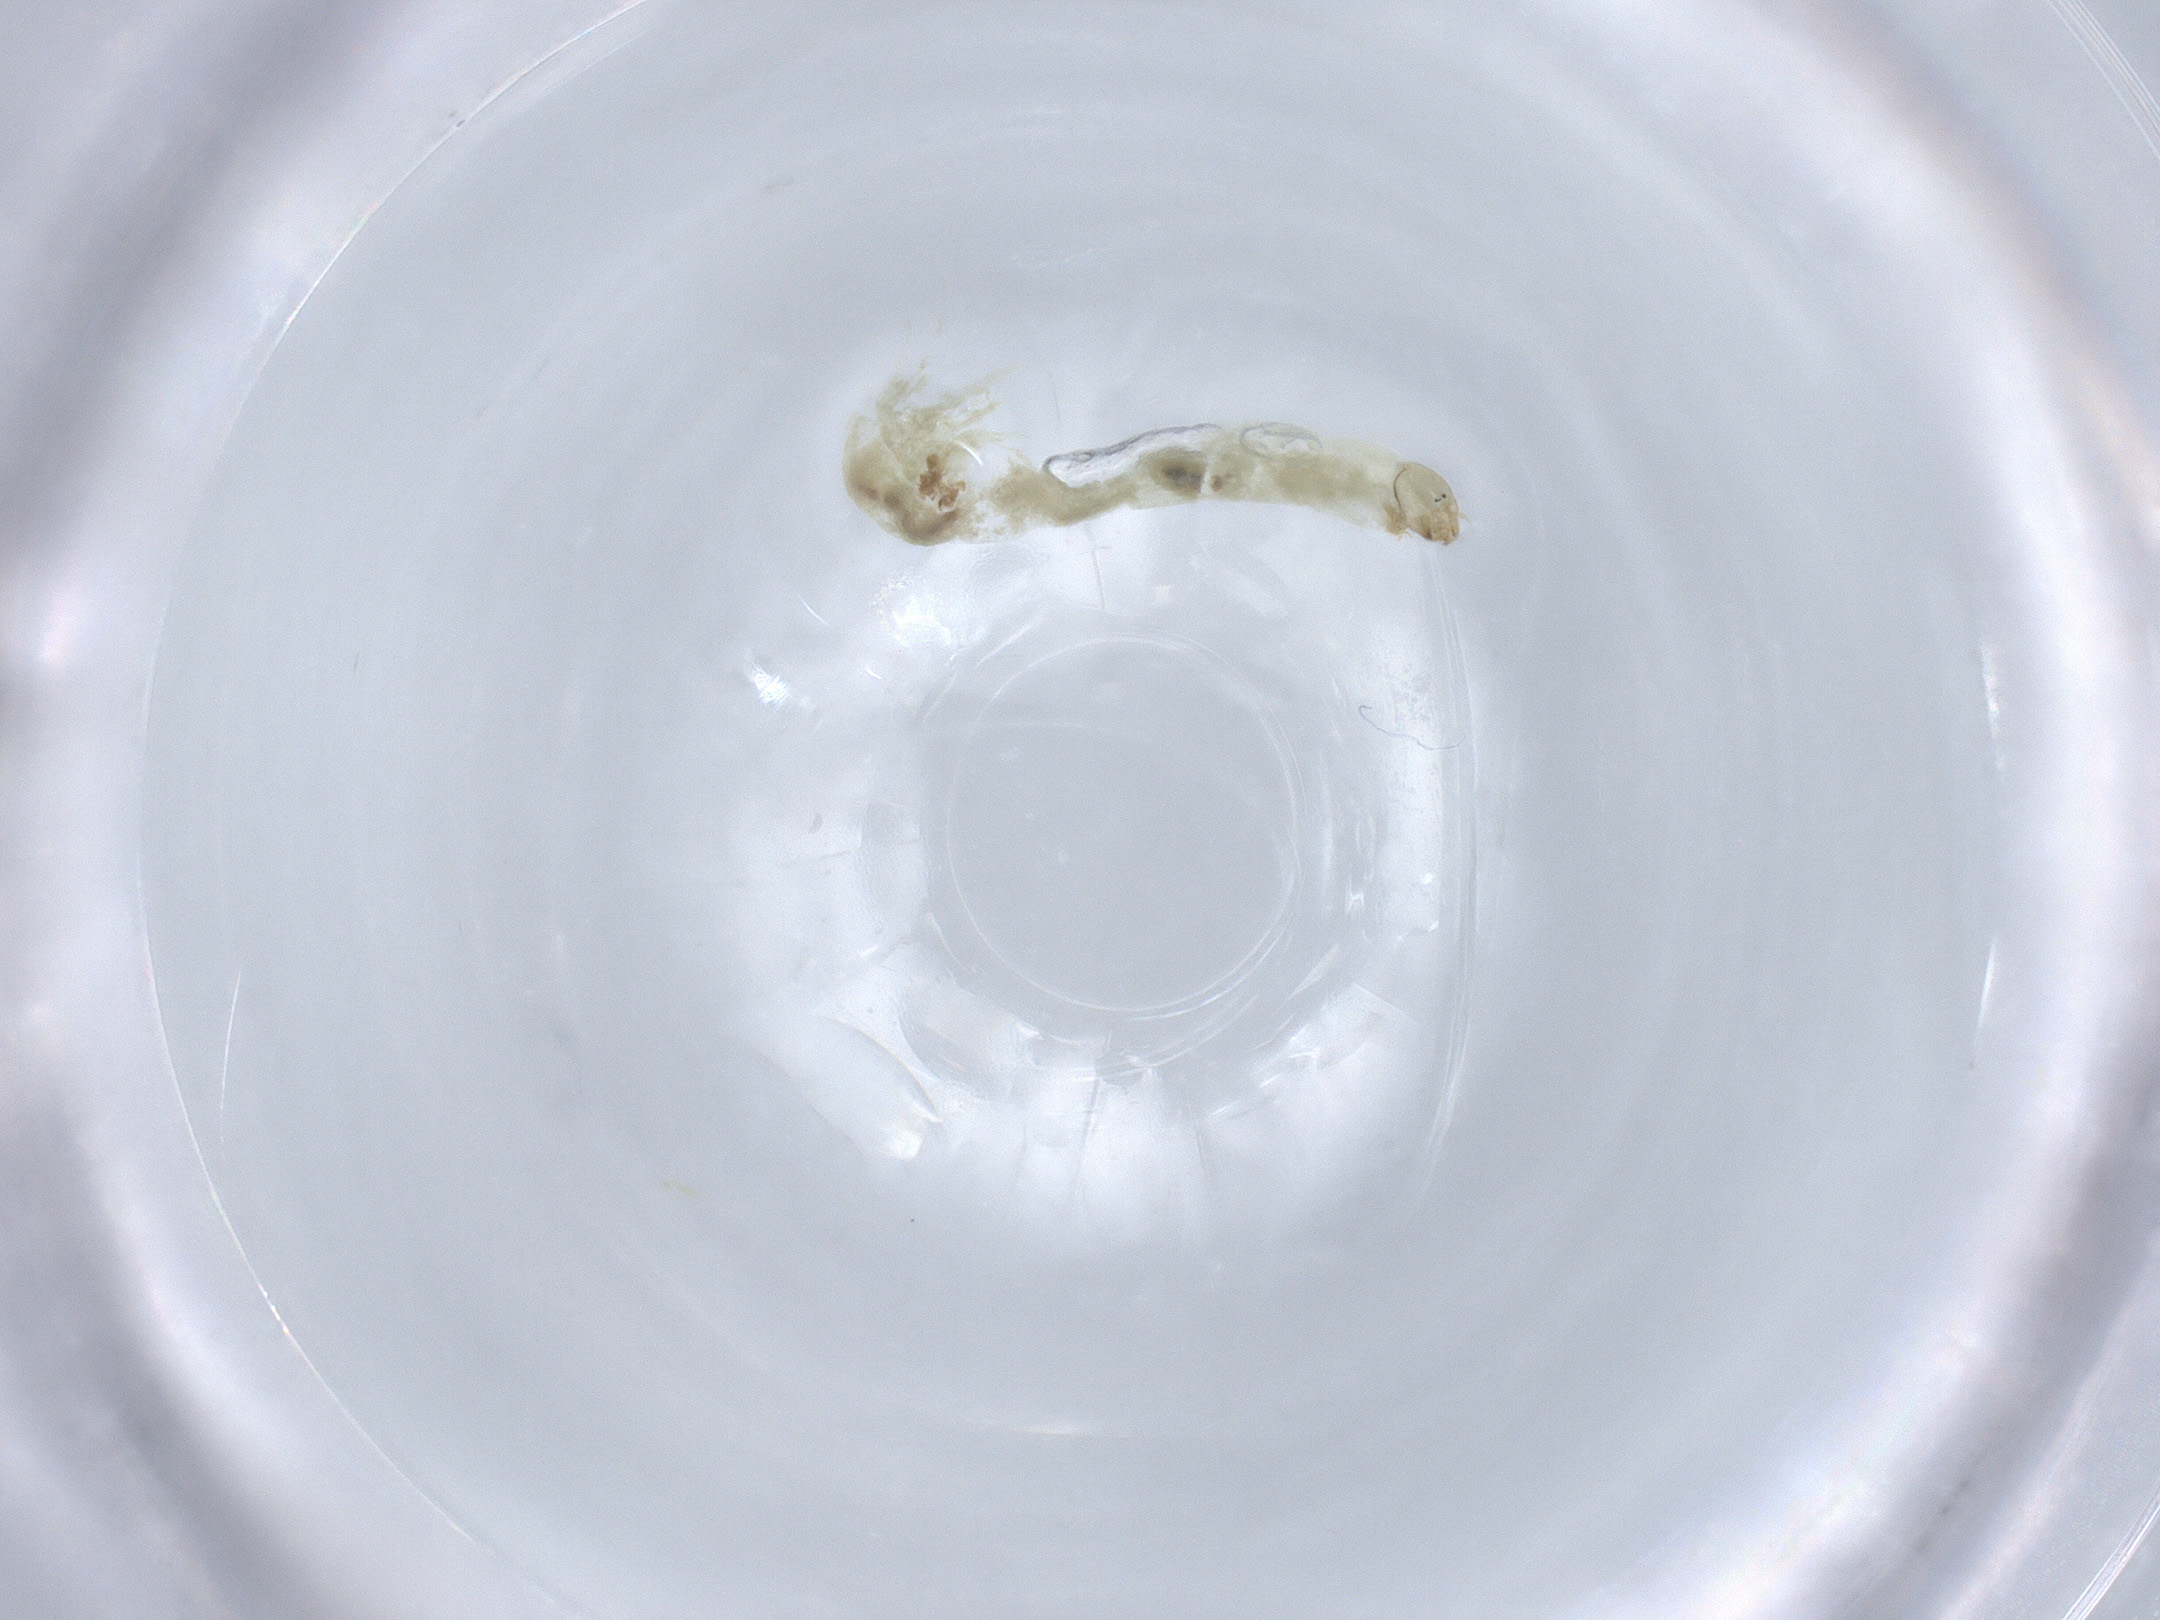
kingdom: Animalia
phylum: Arthropoda
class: Insecta
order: Diptera
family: Chironomidae
